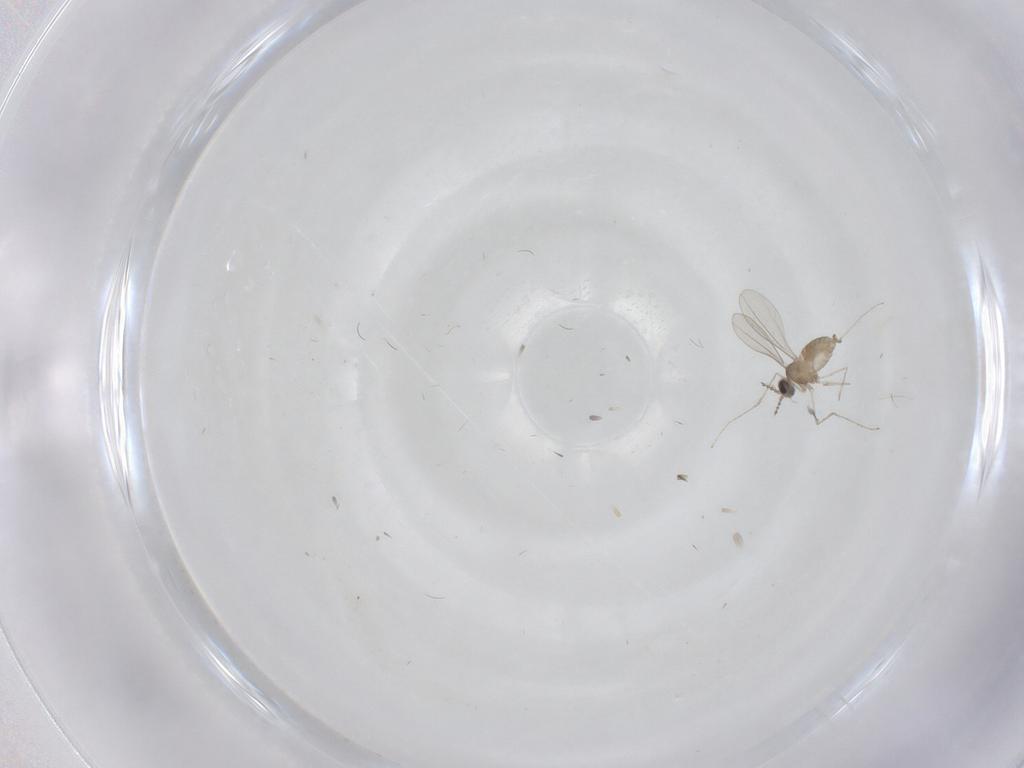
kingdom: Animalia
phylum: Arthropoda
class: Insecta
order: Diptera
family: Cecidomyiidae
